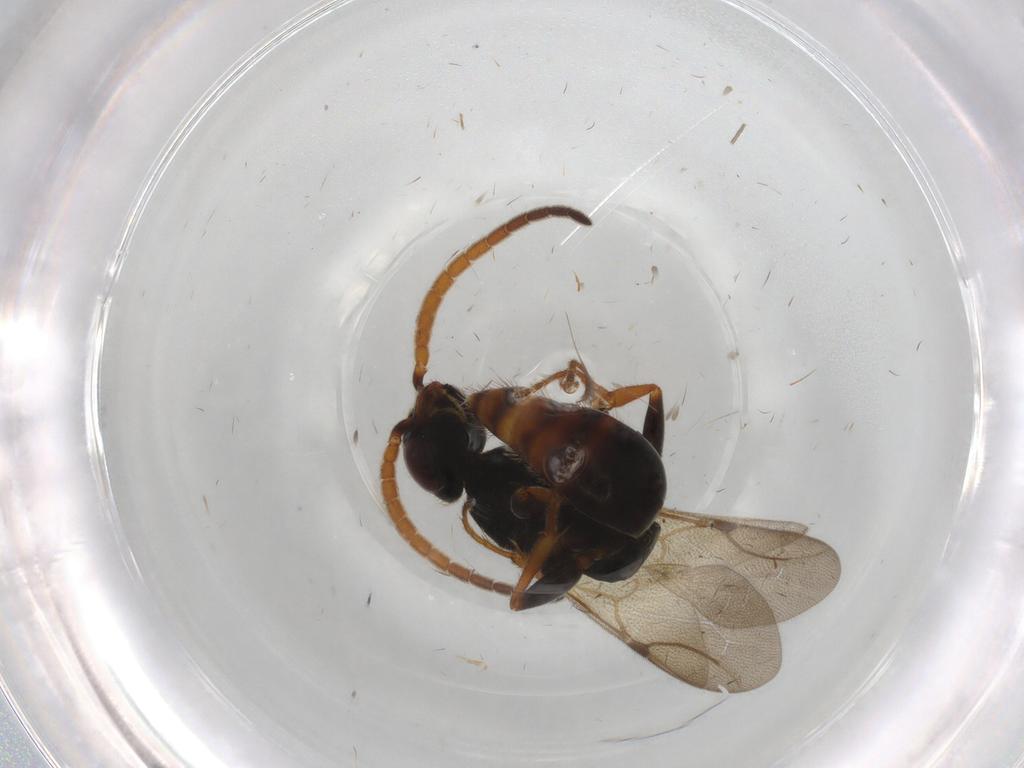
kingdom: Animalia
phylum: Arthropoda
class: Insecta
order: Hymenoptera
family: Bethylidae
